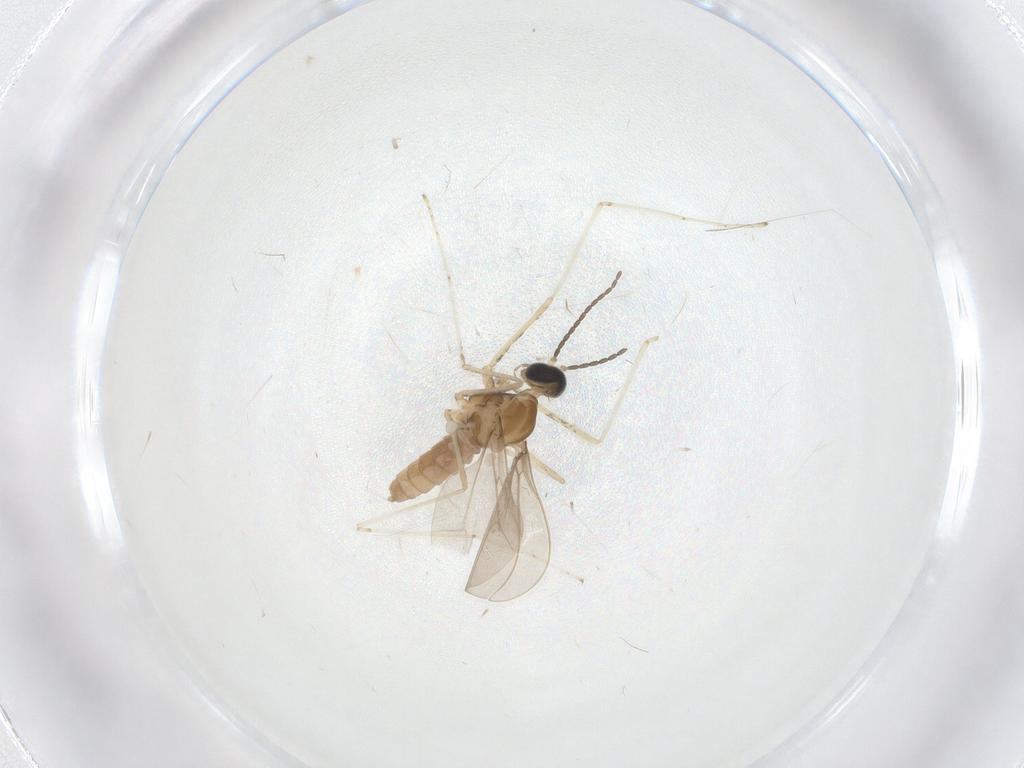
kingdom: Animalia
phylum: Arthropoda
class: Insecta
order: Diptera
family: Cecidomyiidae
